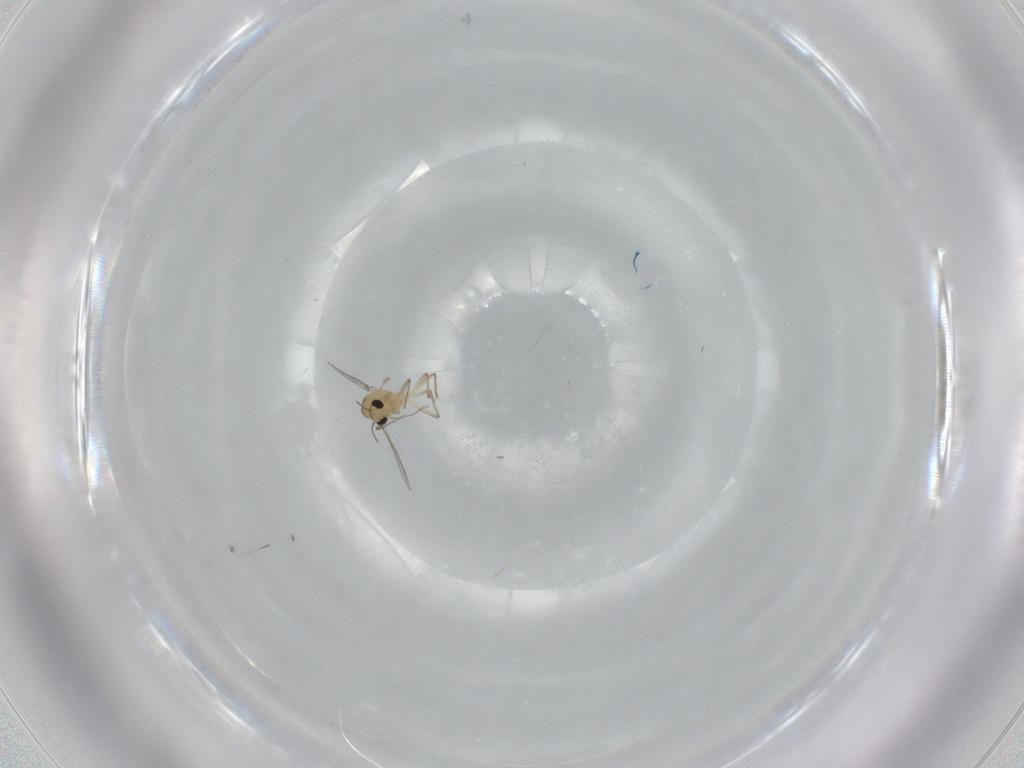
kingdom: Animalia
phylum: Arthropoda
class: Insecta
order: Diptera
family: Chironomidae
